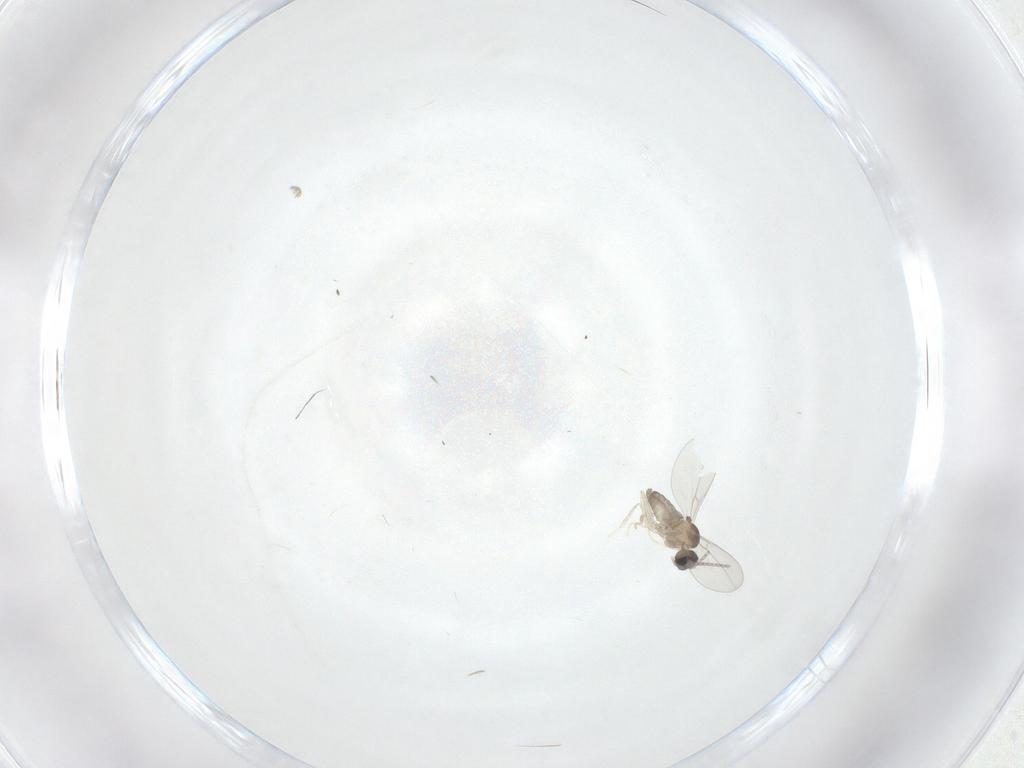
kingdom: Animalia
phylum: Arthropoda
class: Insecta
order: Diptera
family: Cecidomyiidae
